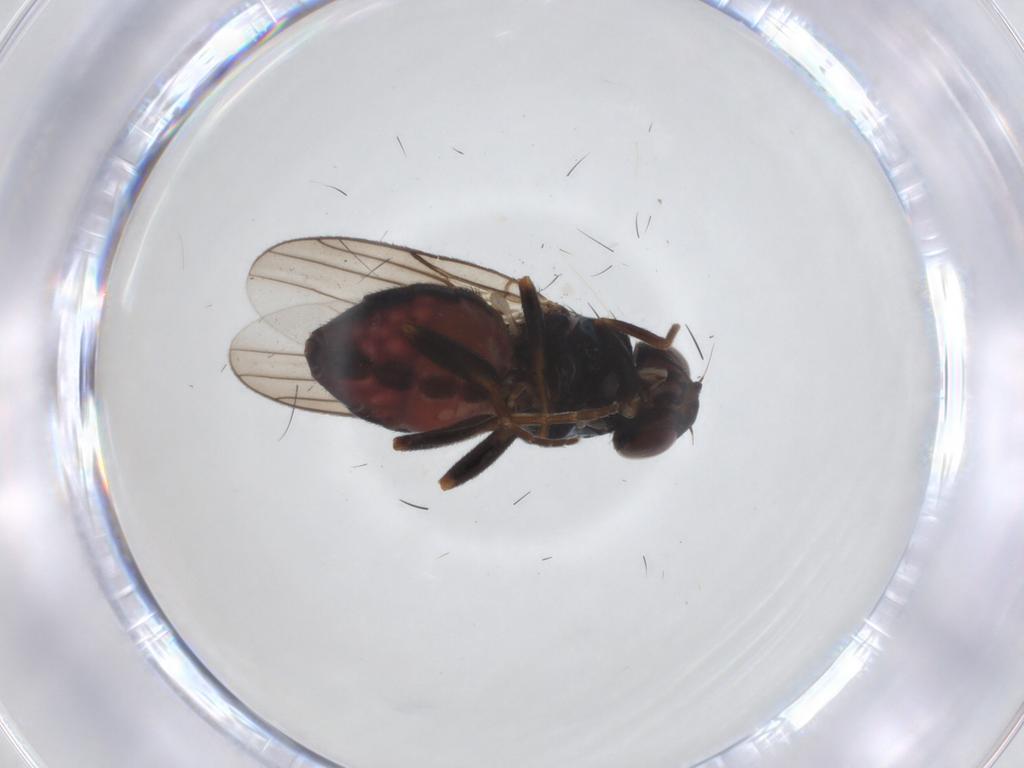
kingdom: Animalia
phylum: Arthropoda
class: Insecta
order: Diptera
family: Chloropidae
